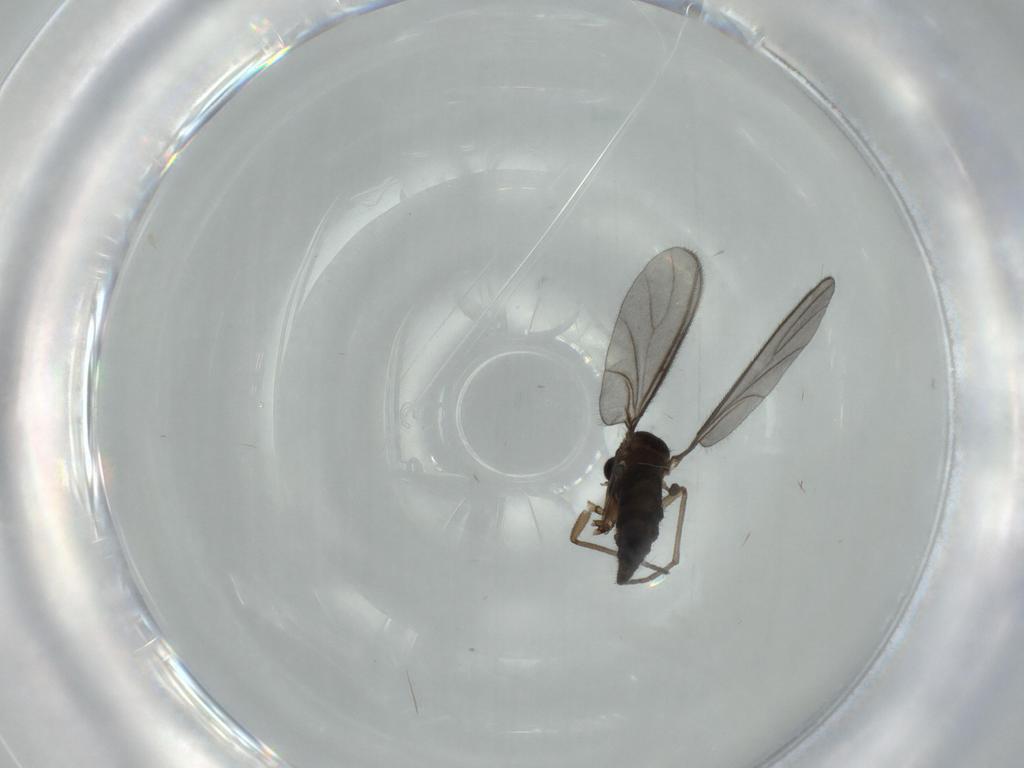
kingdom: Animalia
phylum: Arthropoda
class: Insecta
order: Diptera
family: Sciaridae
